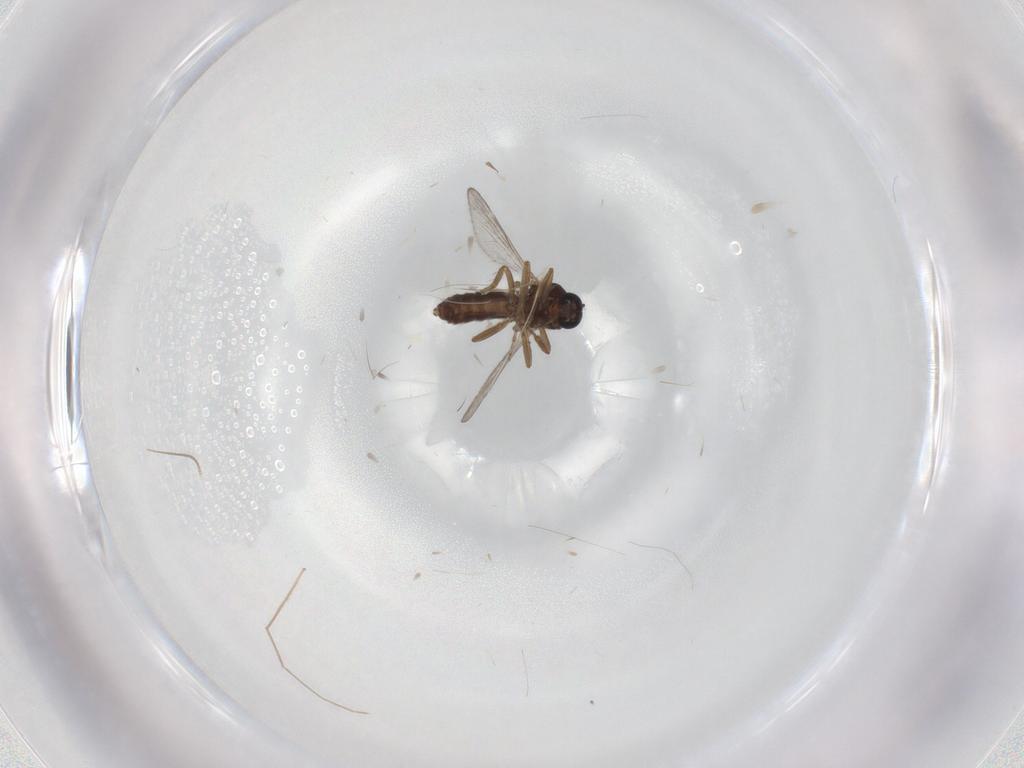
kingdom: Animalia
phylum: Arthropoda
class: Insecta
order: Diptera
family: Ceratopogonidae
